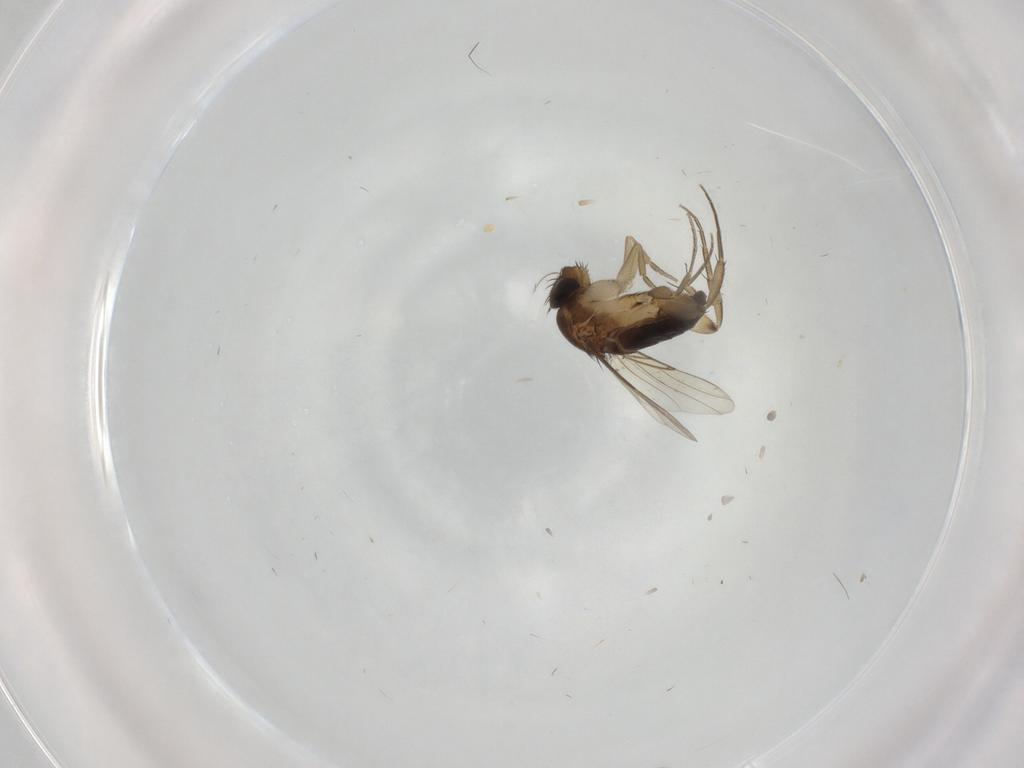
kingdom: Animalia
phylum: Arthropoda
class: Insecta
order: Diptera
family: Phoridae
